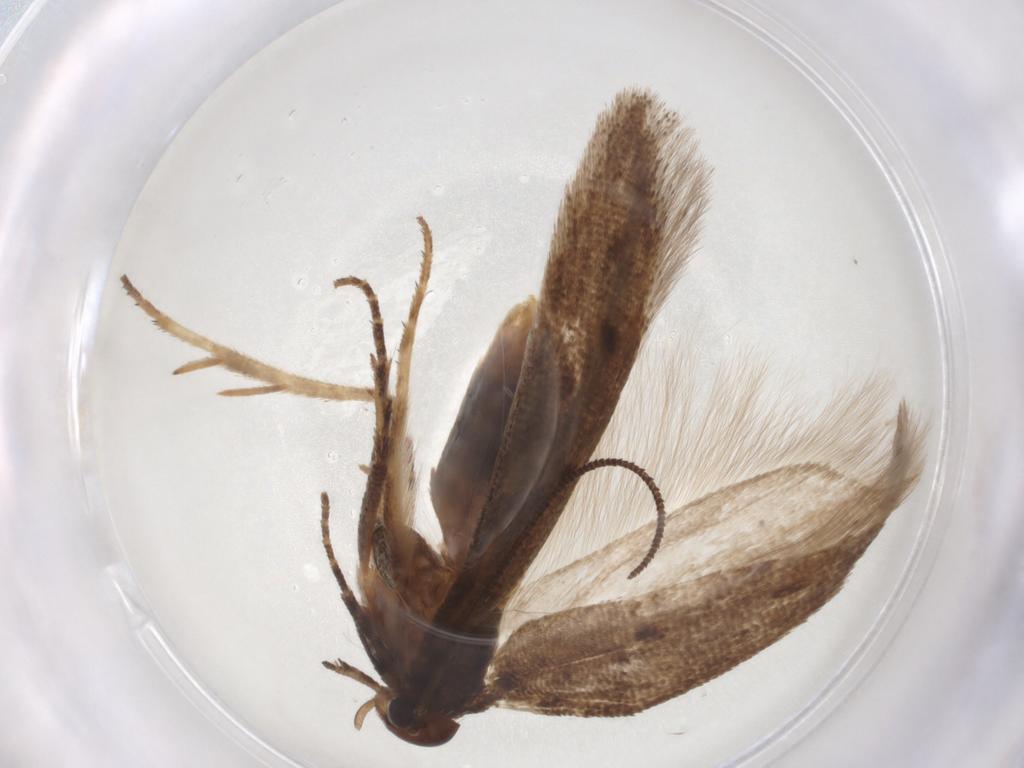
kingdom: Animalia
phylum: Arthropoda
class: Insecta
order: Lepidoptera
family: Gelechiidae
